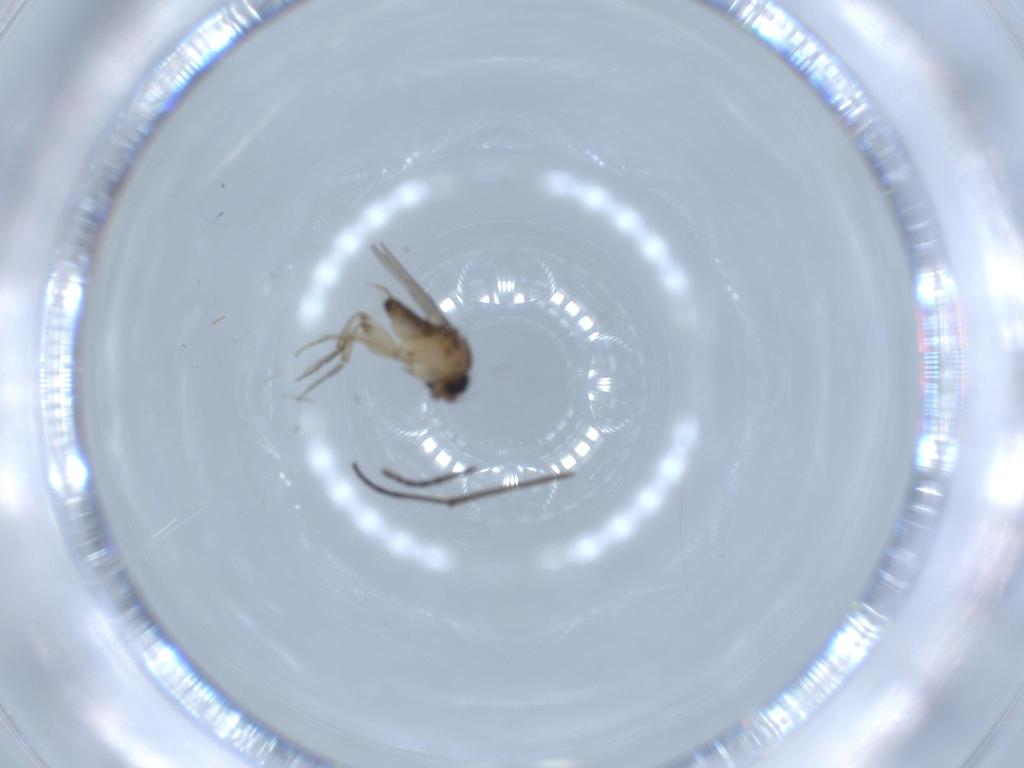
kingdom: Animalia
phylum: Arthropoda
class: Insecta
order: Diptera
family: Phoridae
